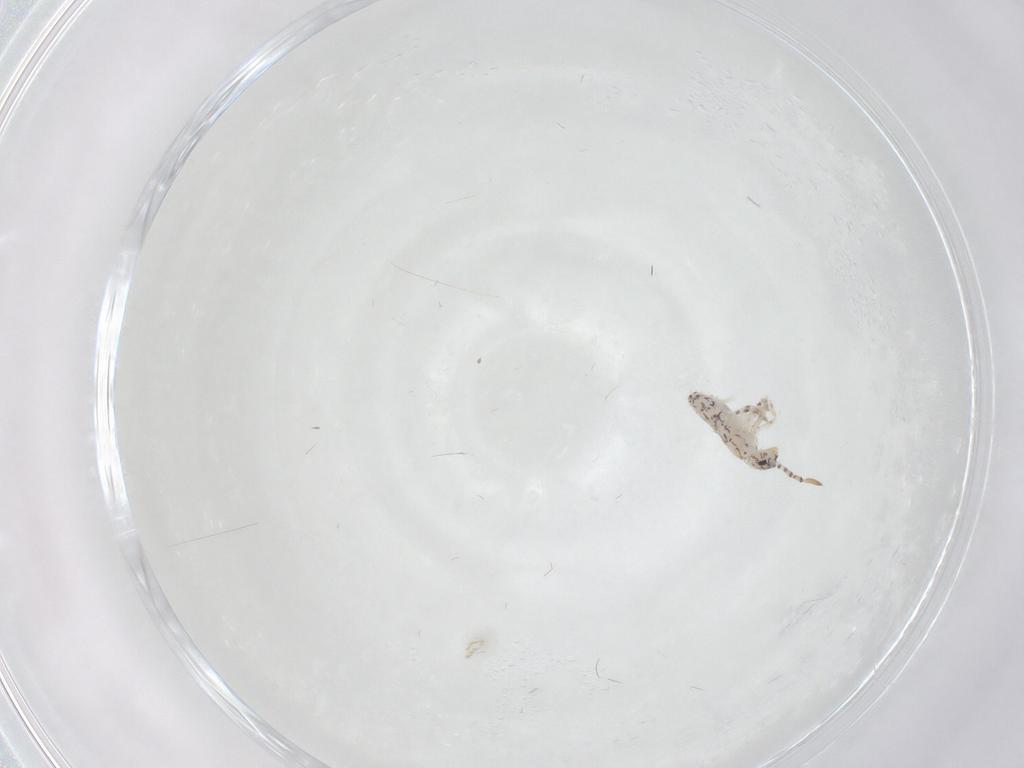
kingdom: Animalia
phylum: Arthropoda
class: Collembola
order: Entomobryomorpha
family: Entomobryidae
